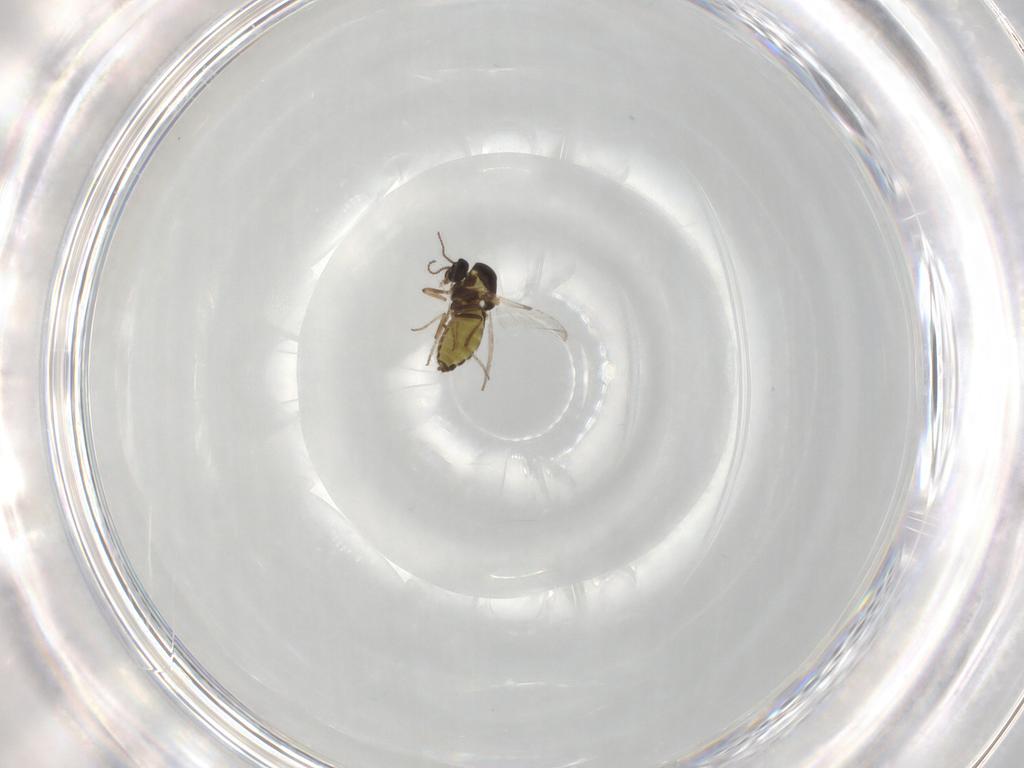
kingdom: Animalia
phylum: Arthropoda
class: Insecta
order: Diptera
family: Ceratopogonidae
